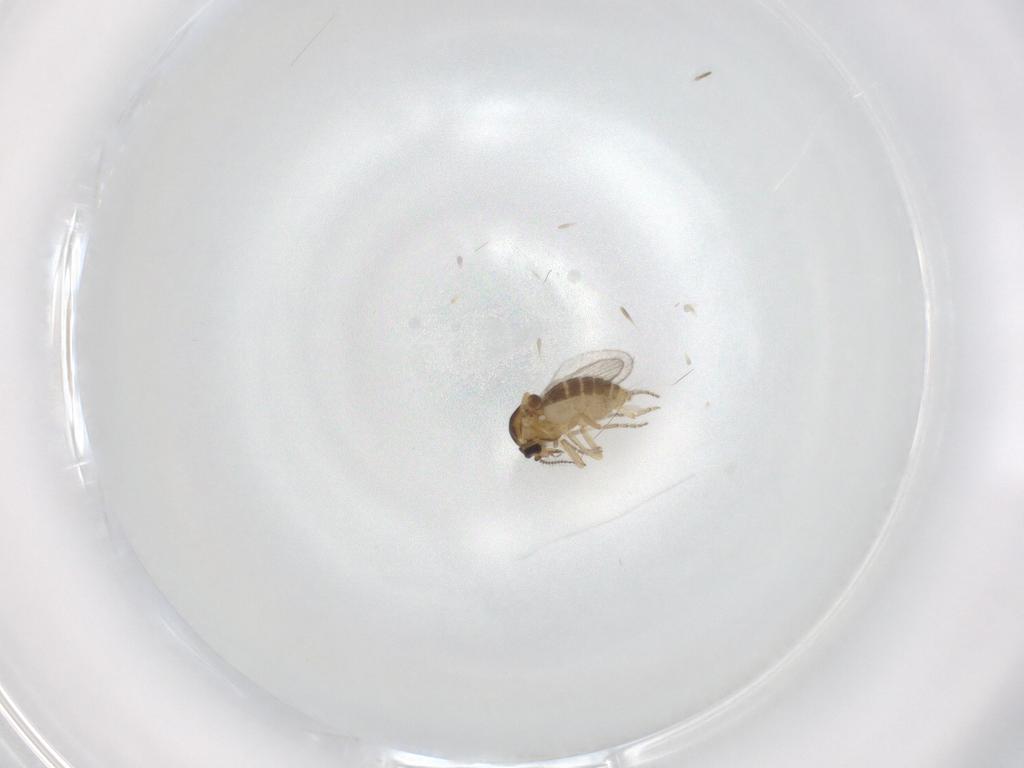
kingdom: Animalia
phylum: Arthropoda
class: Insecta
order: Diptera
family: Ceratopogonidae
